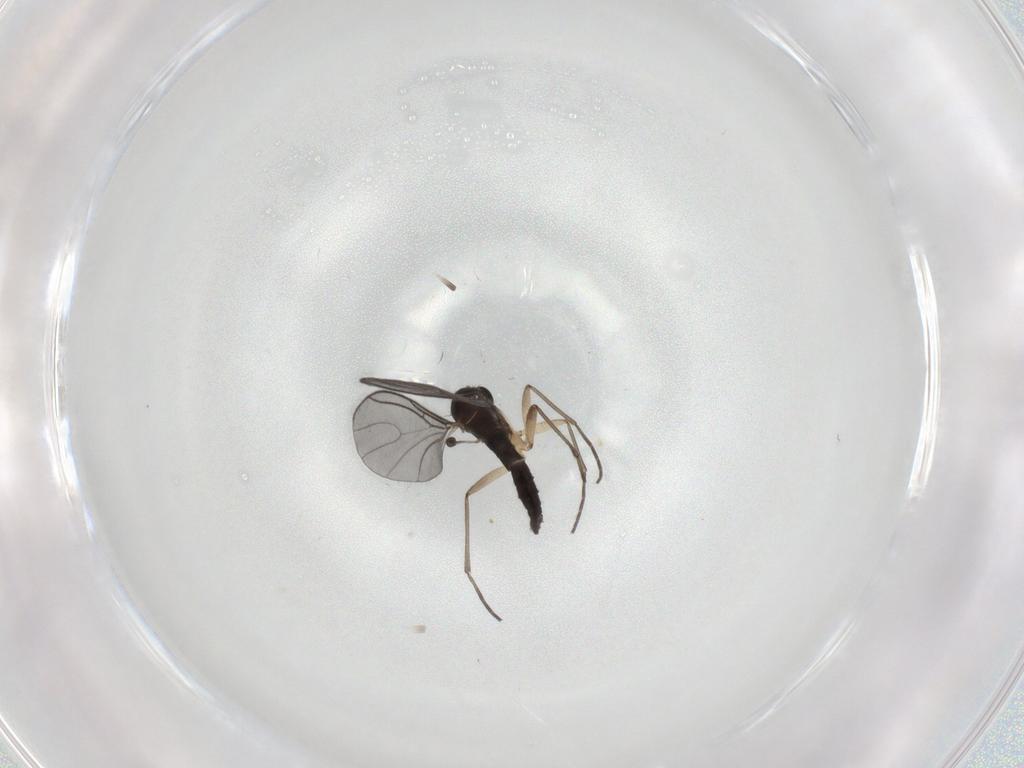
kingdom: Animalia
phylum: Arthropoda
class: Insecta
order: Diptera
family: Sciaridae
